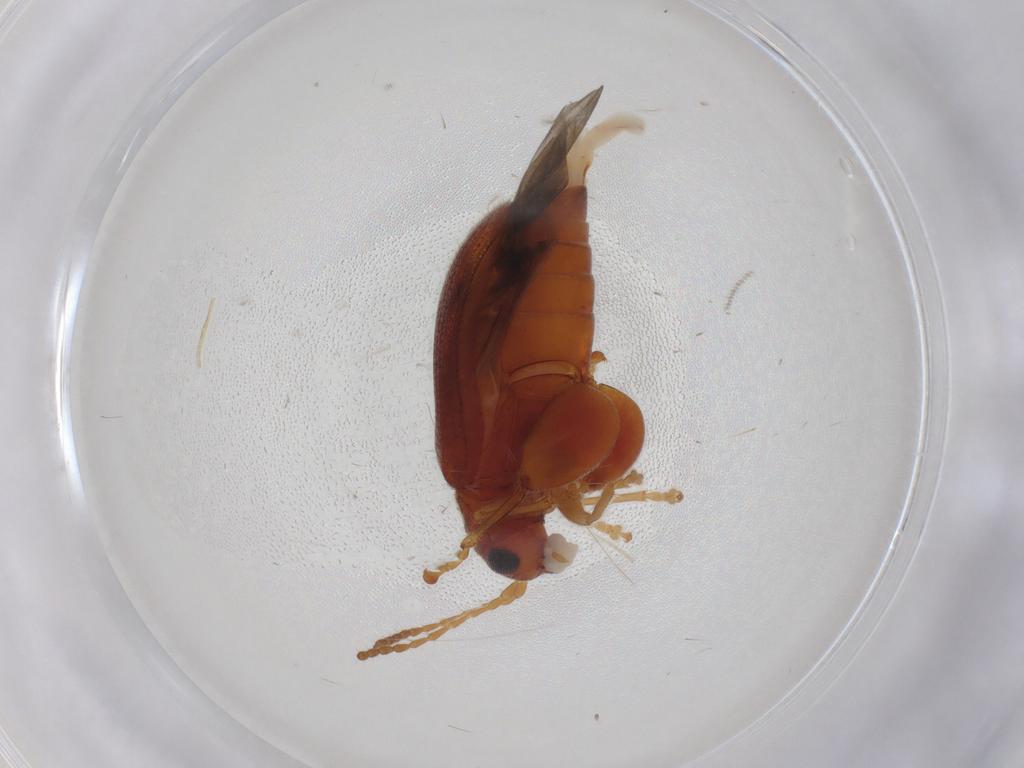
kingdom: Animalia
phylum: Arthropoda
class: Insecta
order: Coleoptera
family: Chrysomelidae
